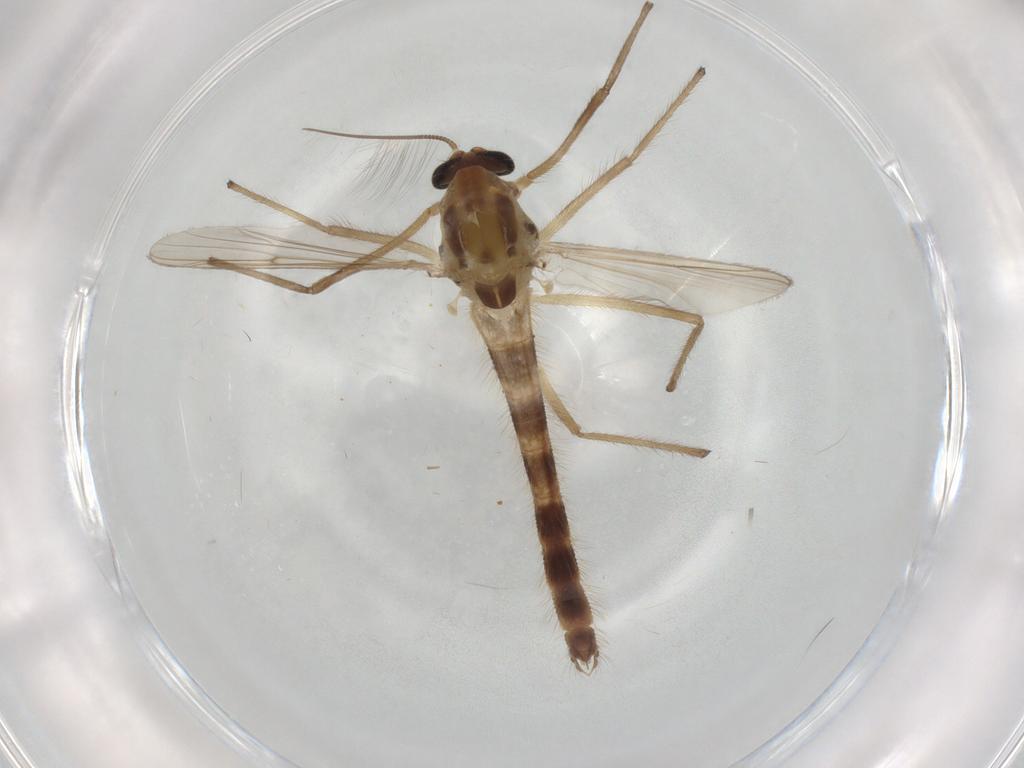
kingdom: Animalia
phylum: Arthropoda
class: Insecta
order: Diptera
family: Chironomidae
